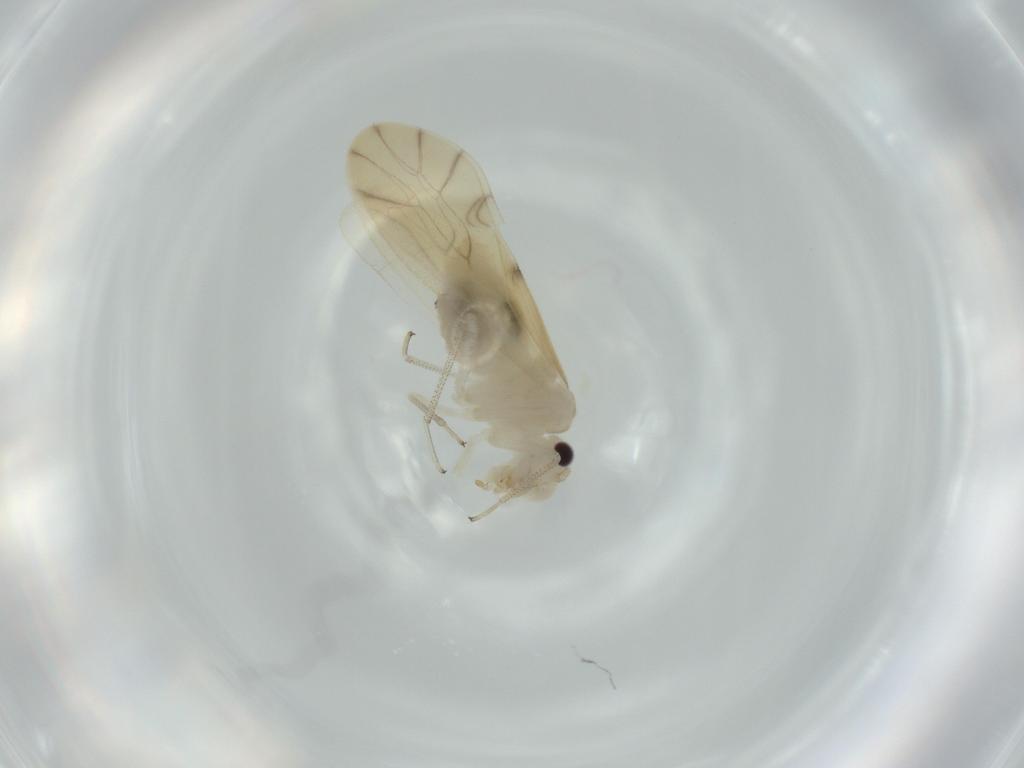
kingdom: Animalia
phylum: Arthropoda
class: Insecta
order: Psocodea
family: Caeciliusidae
